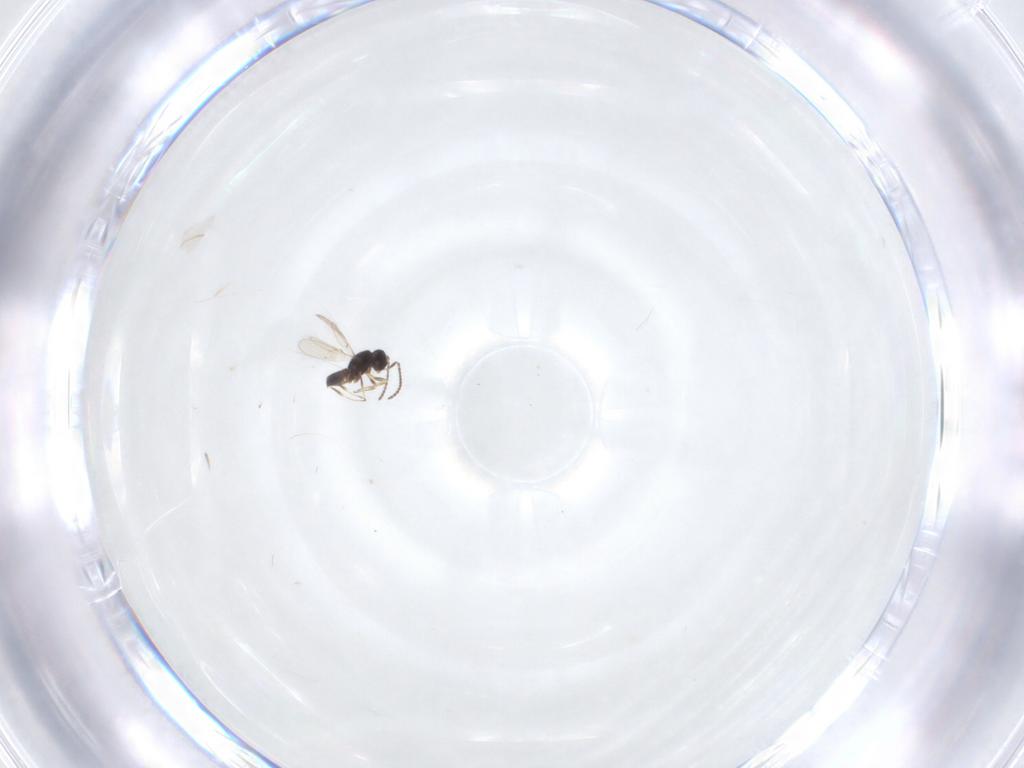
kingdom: Animalia
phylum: Arthropoda
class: Insecta
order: Hymenoptera
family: Scelionidae
